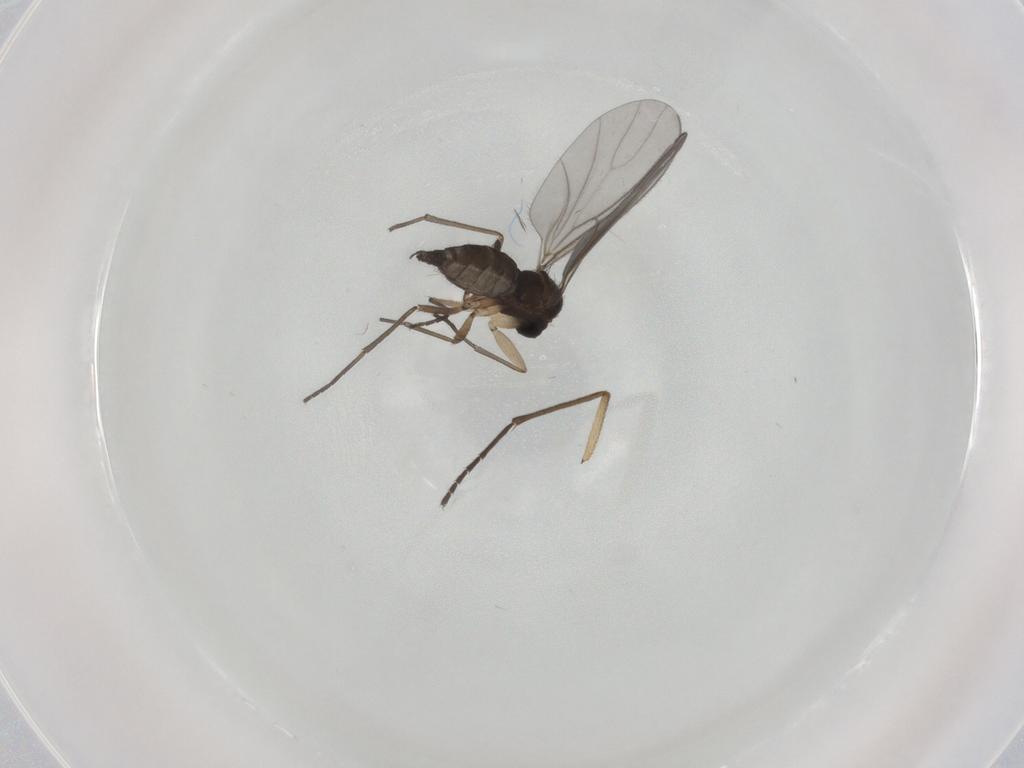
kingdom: Animalia
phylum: Arthropoda
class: Insecta
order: Diptera
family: Sciaridae
